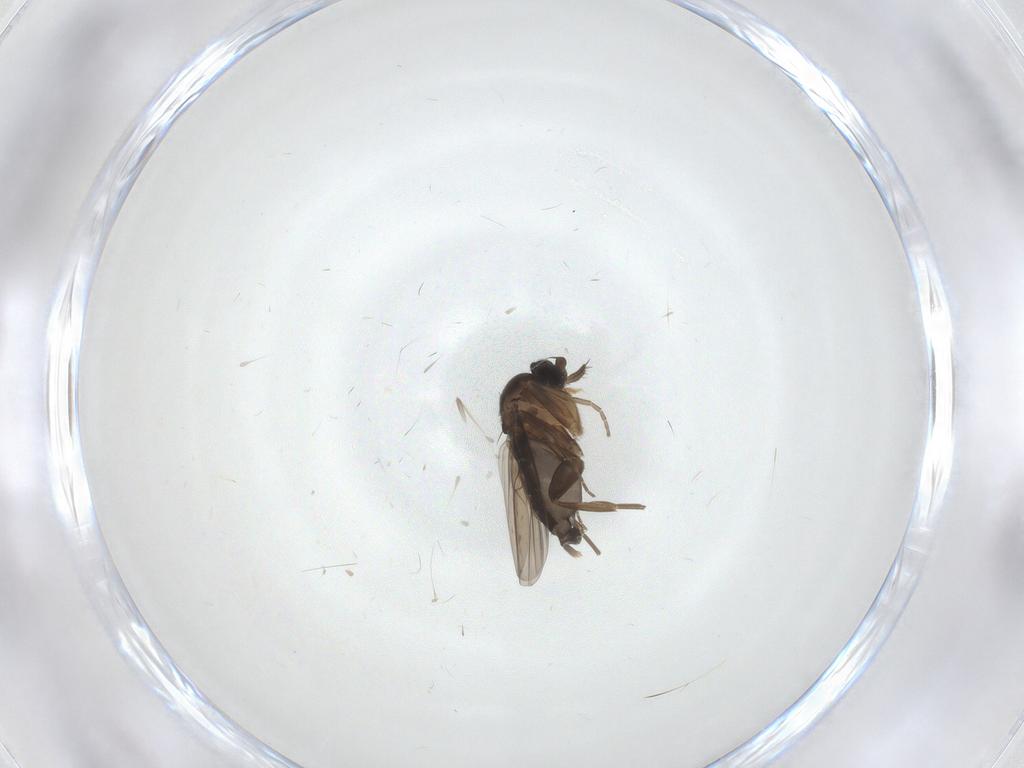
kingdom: Animalia
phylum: Arthropoda
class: Insecta
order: Diptera
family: Phoridae
